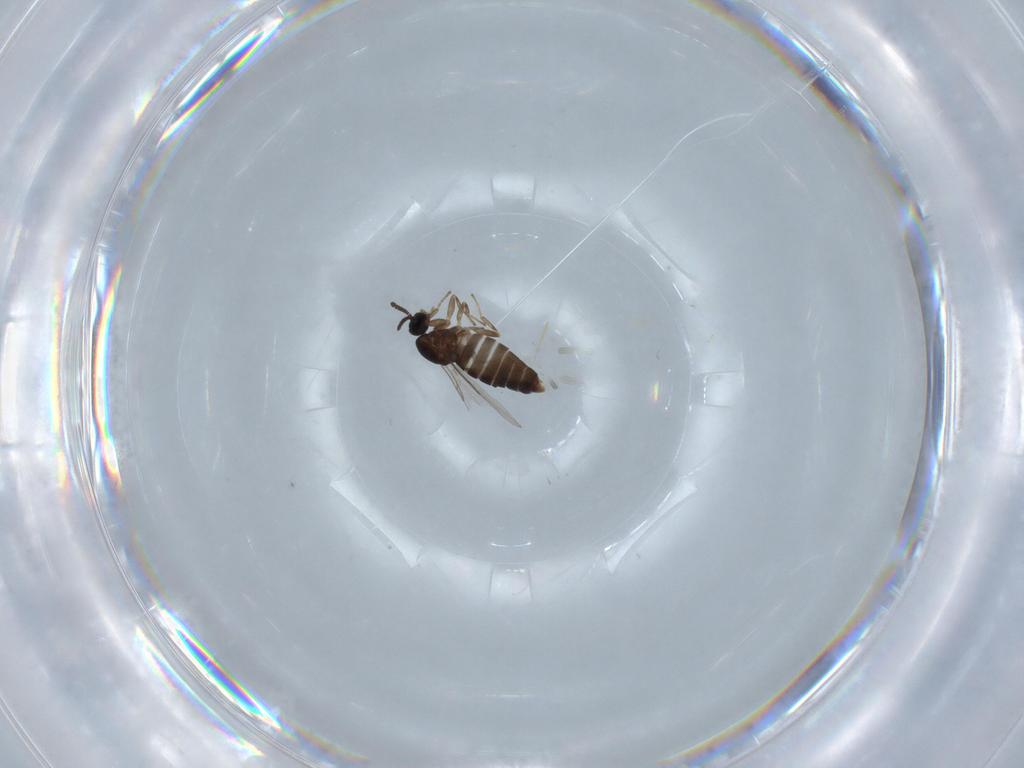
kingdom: Animalia
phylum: Arthropoda
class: Insecta
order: Diptera
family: Scatopsidae
